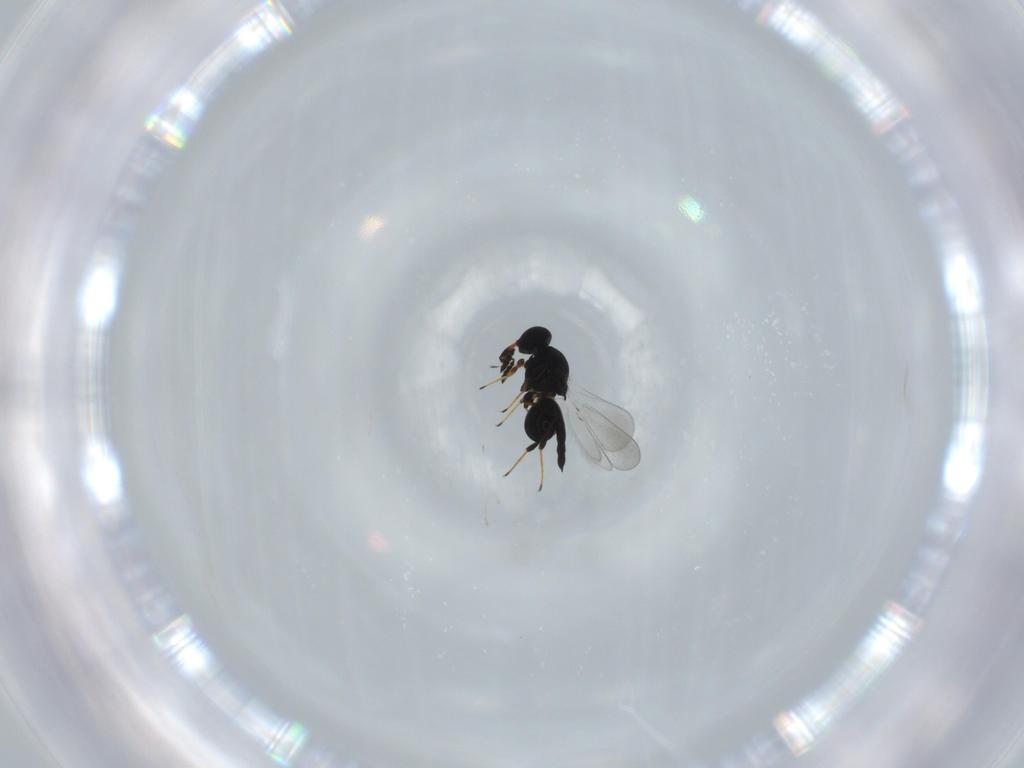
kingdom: Animalia
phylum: Arthropoda
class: Insecta
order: Hymenoptera
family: Platygastridae
